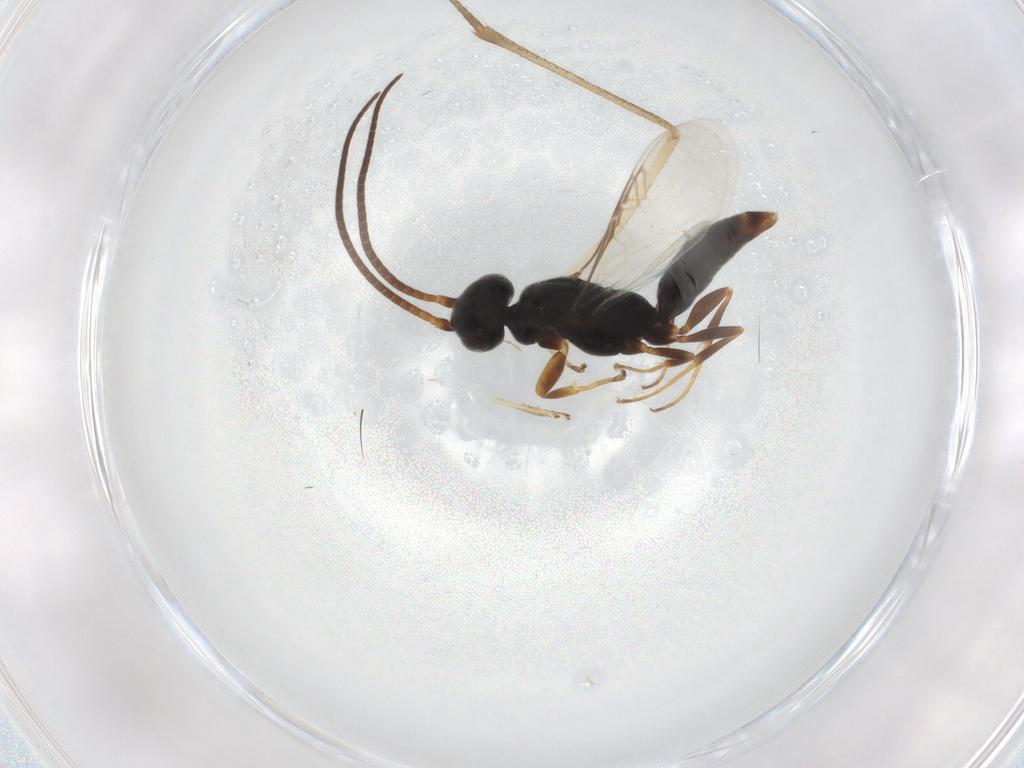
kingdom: Animalia
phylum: Arthropoda
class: Insecta
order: Hymenoptera
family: Sclerogibbidae
